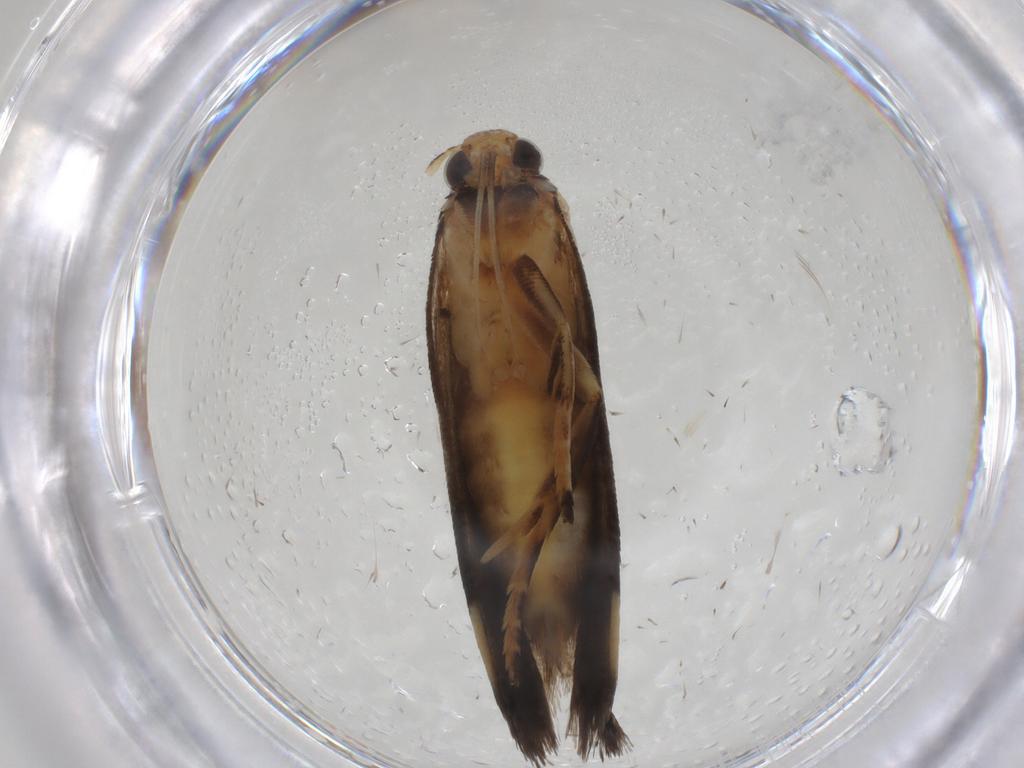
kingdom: Animalia
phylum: Arthropoda
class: Insecta
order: Lepidoptera
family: Gelechiidae
